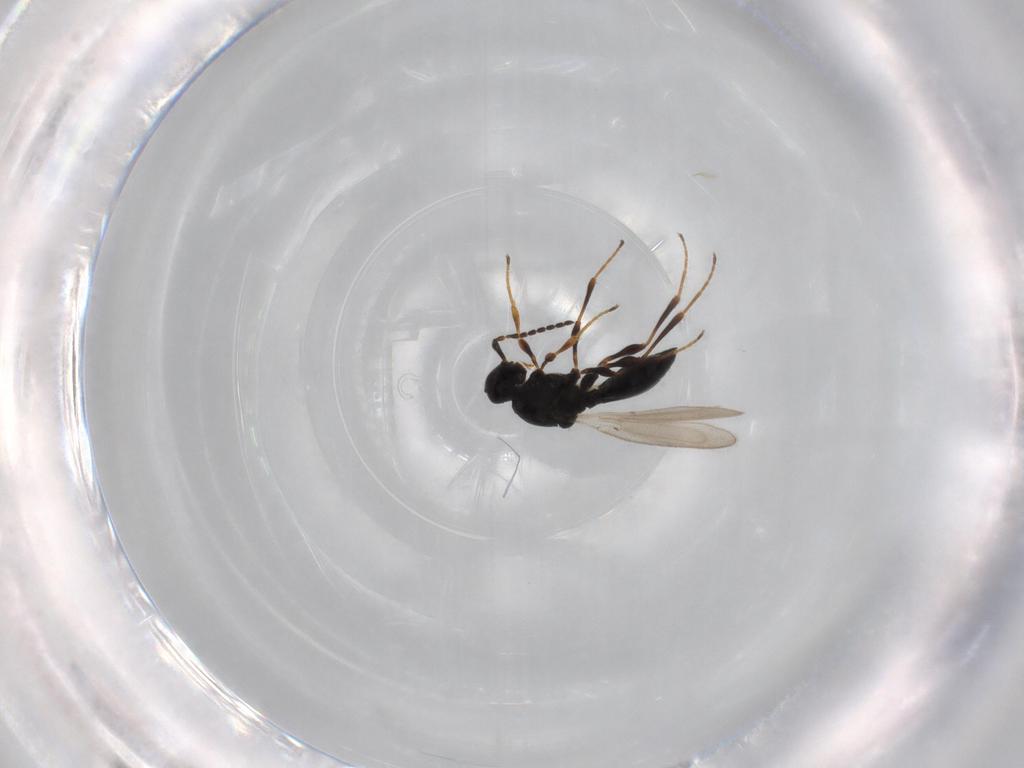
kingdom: Animalia
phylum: Arthropoda
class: Insecta
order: Diptera
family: Mythicomyiidae
